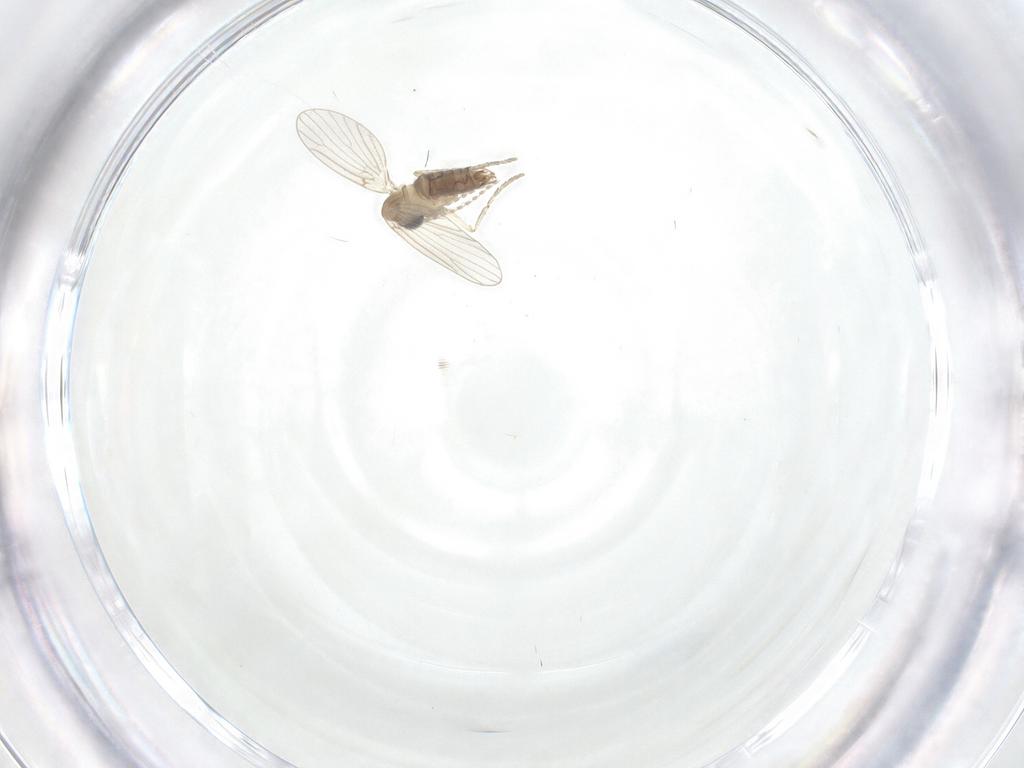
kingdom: Animalia
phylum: Arthropoda
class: Insecta
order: Diptera
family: Psychodidae
